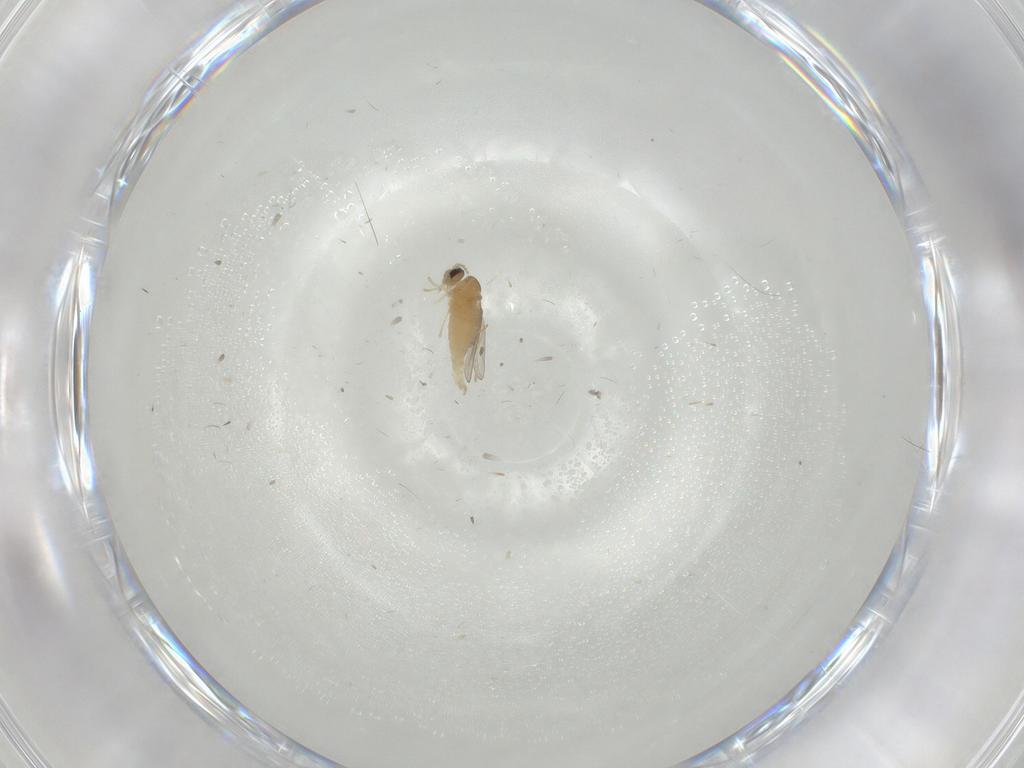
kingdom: Animalia
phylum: Arthropoda
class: Insecta
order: Diptera
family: Cecidomyiidae
